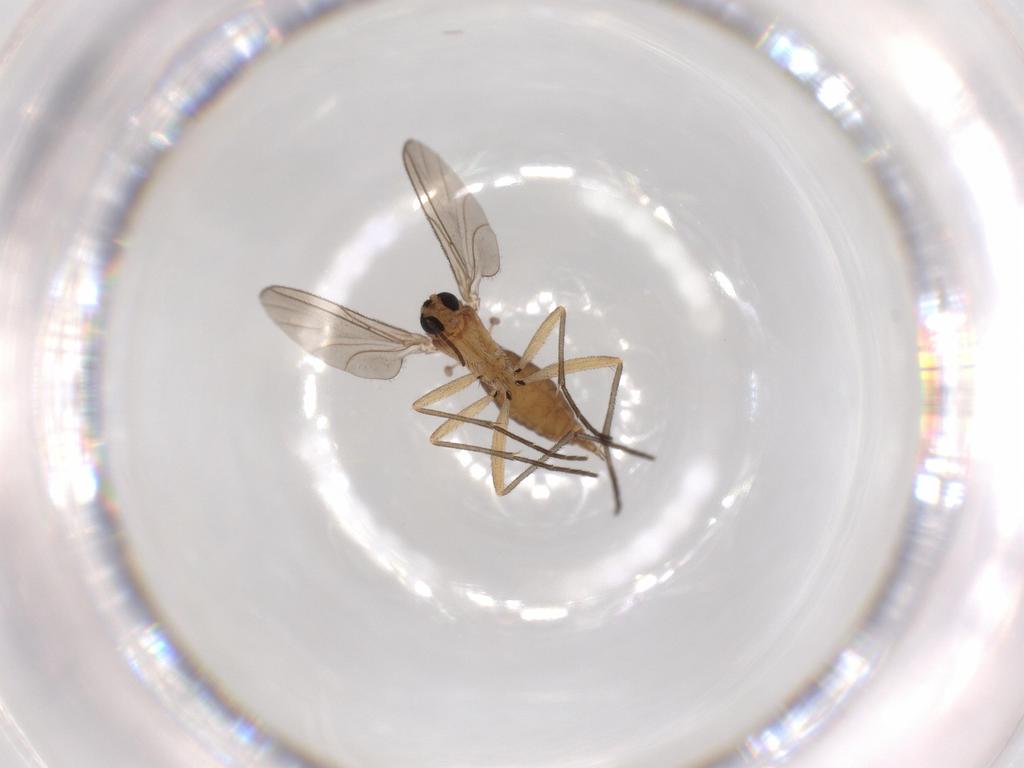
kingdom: Animalia
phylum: Arthropoda
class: Insecta
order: Diptera
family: Sciaridae
